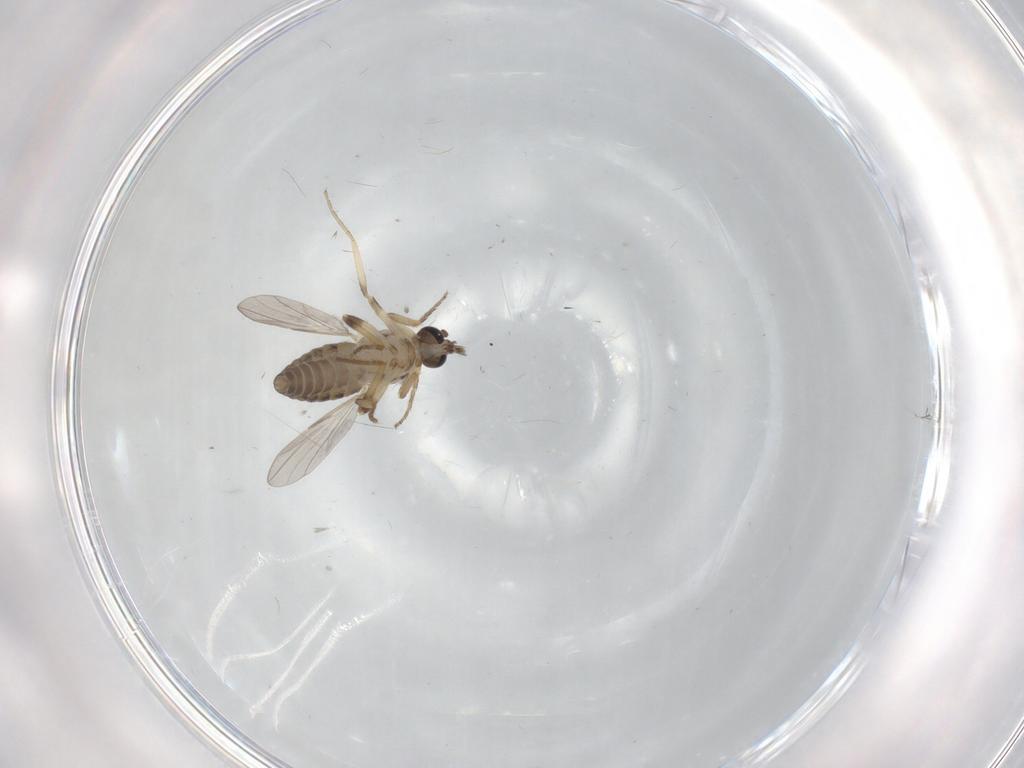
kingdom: Animalia
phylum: Arthropoda
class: Insecta
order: Diptera
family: Ceratopogonidae
